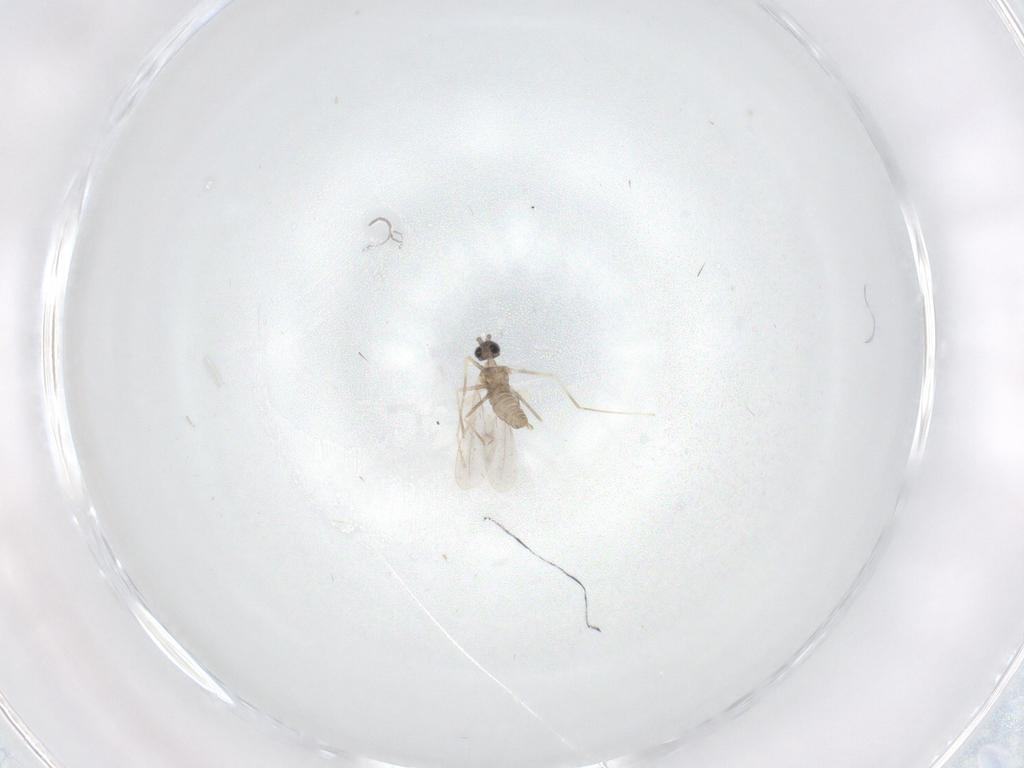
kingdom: Animalia
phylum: Arthropoda
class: Insecta
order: Diptera
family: Cecidomyiidae
